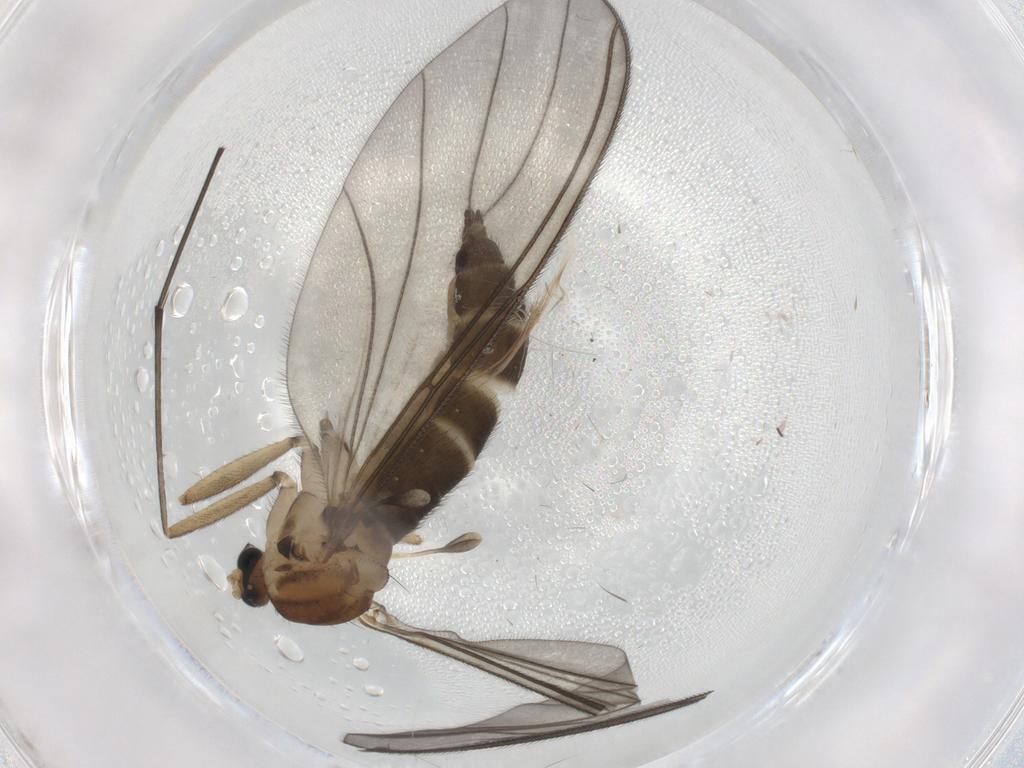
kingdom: Animalia
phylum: Arthropoda
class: Insecta
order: Diptera
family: Sciaridae
